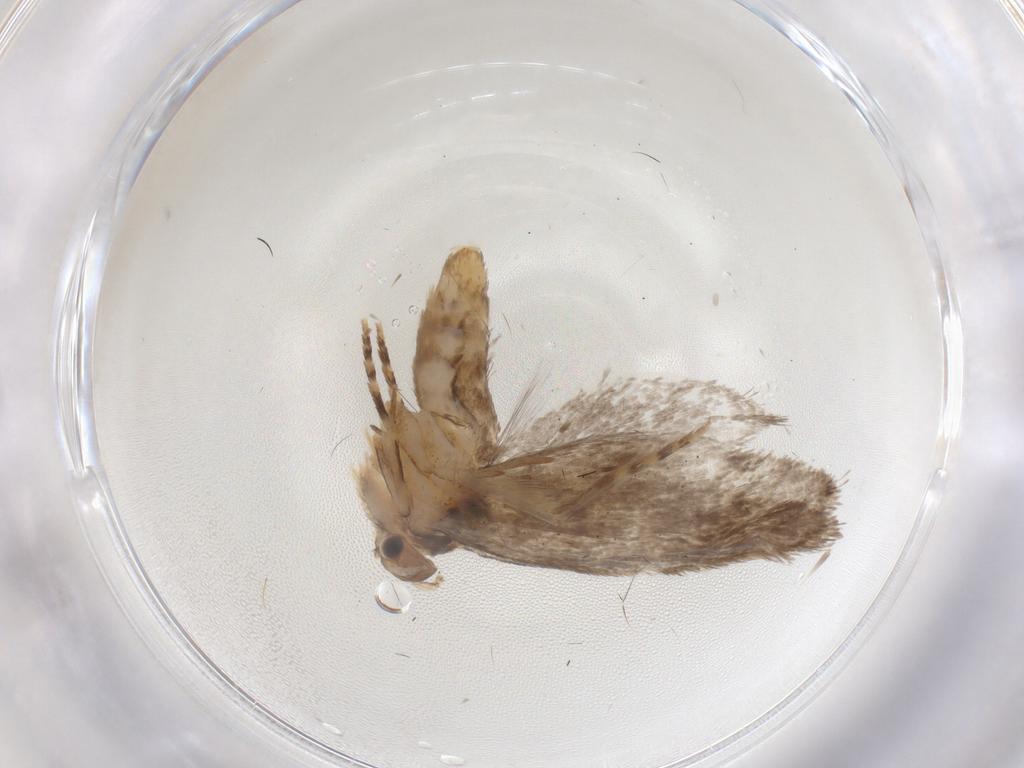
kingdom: Animalia
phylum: Arthropoda
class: Insecta
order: Lepidoptera
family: Dryadaulidae
